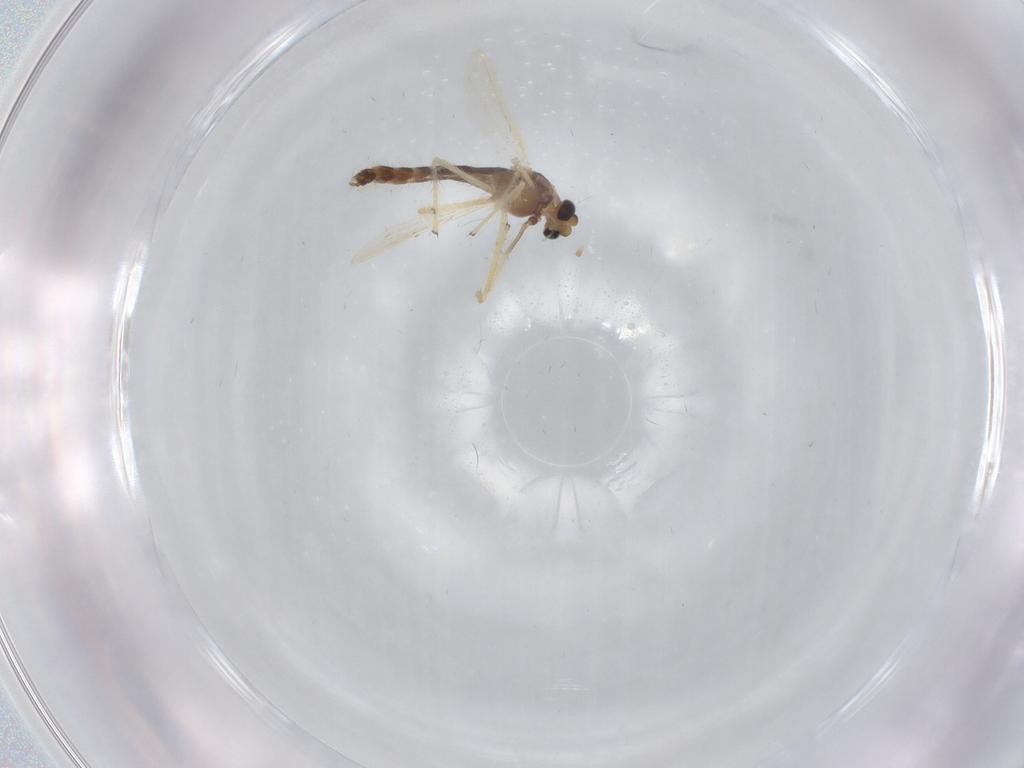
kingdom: Animalia
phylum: Arthropoda
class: Insecta
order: Diptera
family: Chironomidae
